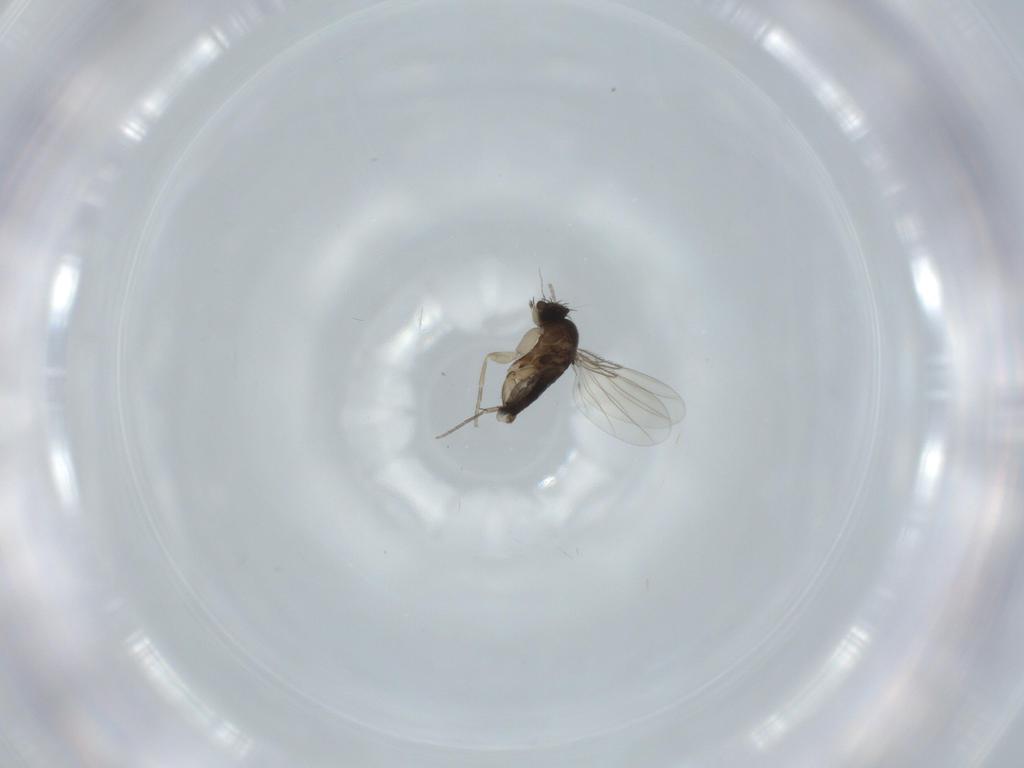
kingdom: Animalia
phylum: Arthropoda
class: Insecta
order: Diptera
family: Phoridae
